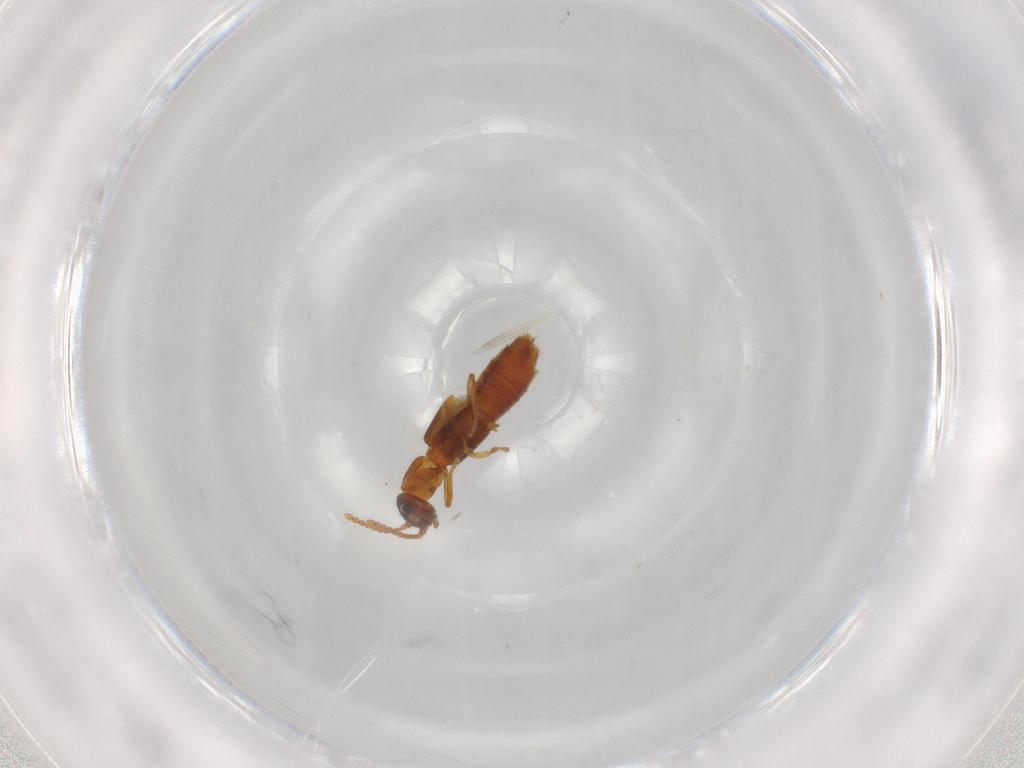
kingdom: Animalia
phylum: Arthropoda
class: Insecta
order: Coleoptera
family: Staphylinidae
